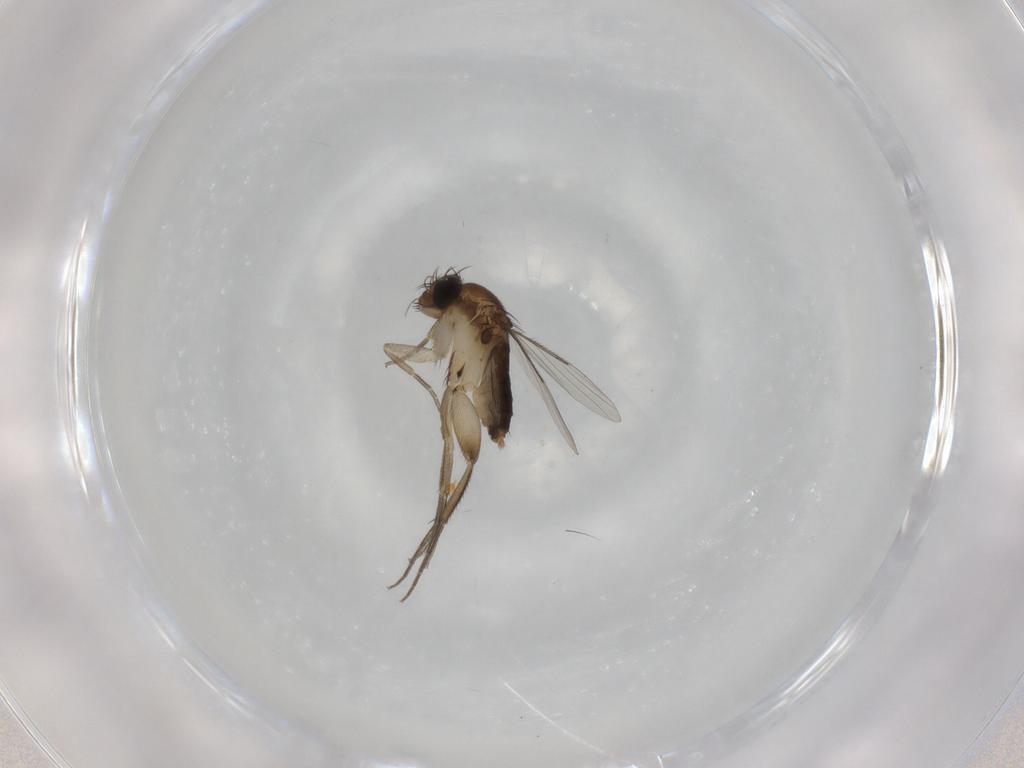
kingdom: Animalia
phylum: Arthropoda
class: Insecta
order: Diptera
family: Phoridae
